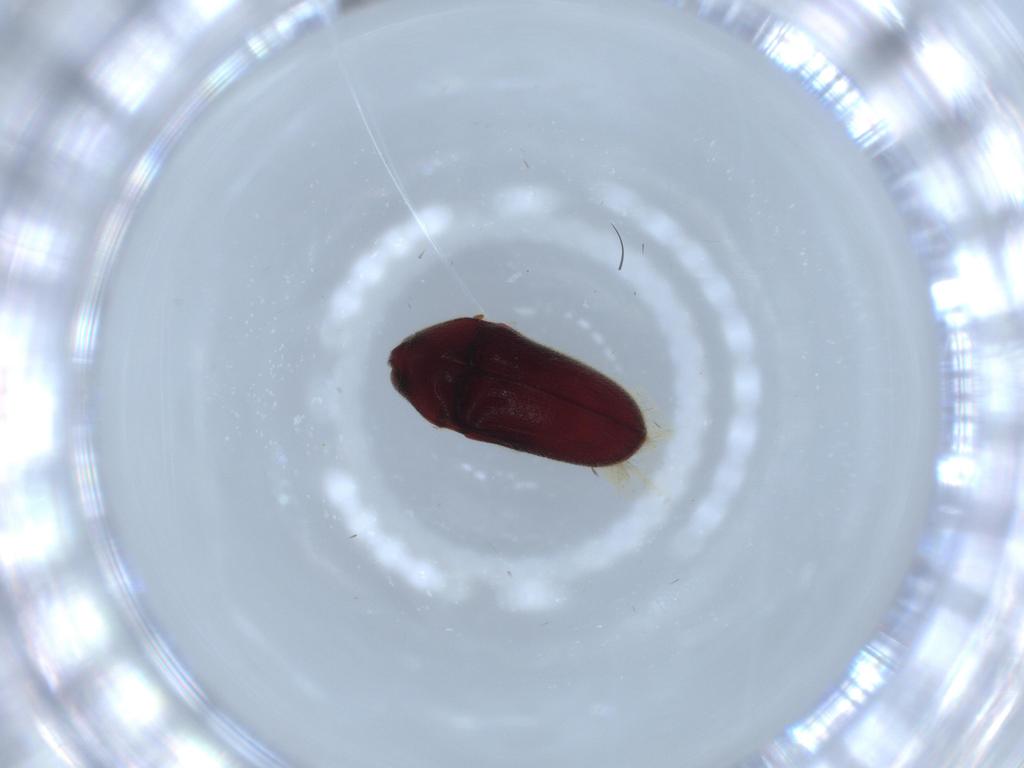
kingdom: Animalia
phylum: Arthropoda
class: Insecta
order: Coleoptera
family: Throscidae
